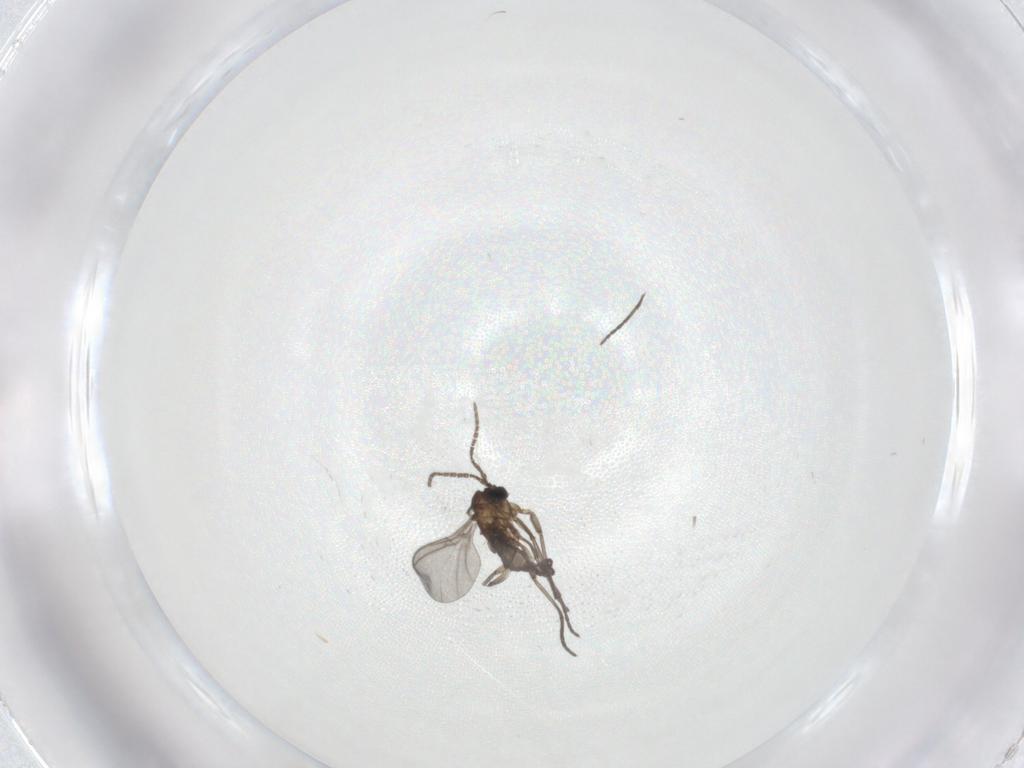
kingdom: Animalia
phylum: Arthropoda
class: Insecta
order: Diptera
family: Sciaridae
